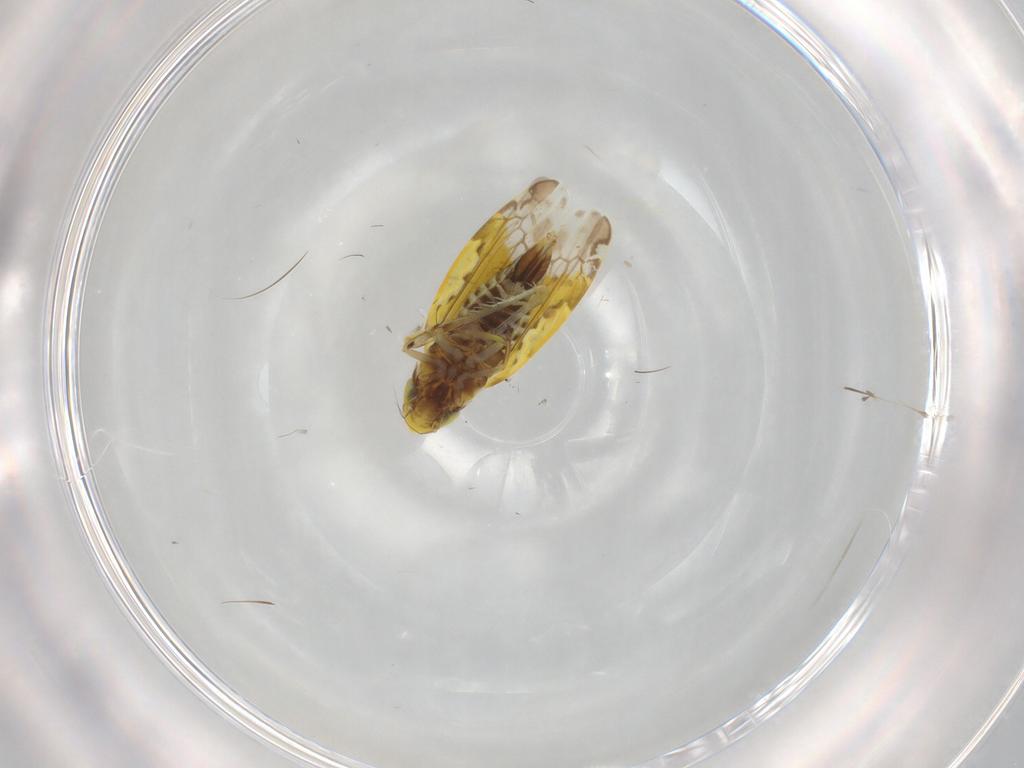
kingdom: Animalia
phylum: Arthropoda
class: Insecta
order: Hemiptera
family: Cicadellidae
